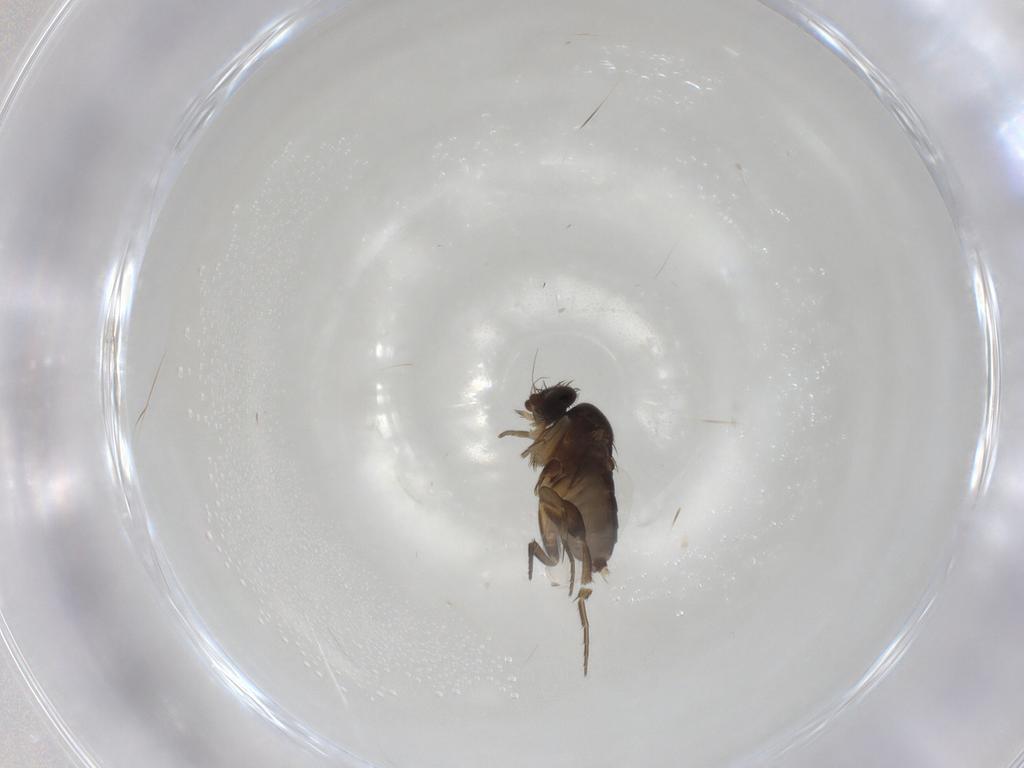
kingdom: Animalia
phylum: Arthropoda
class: Insecta
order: Diptera
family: Phoridae
